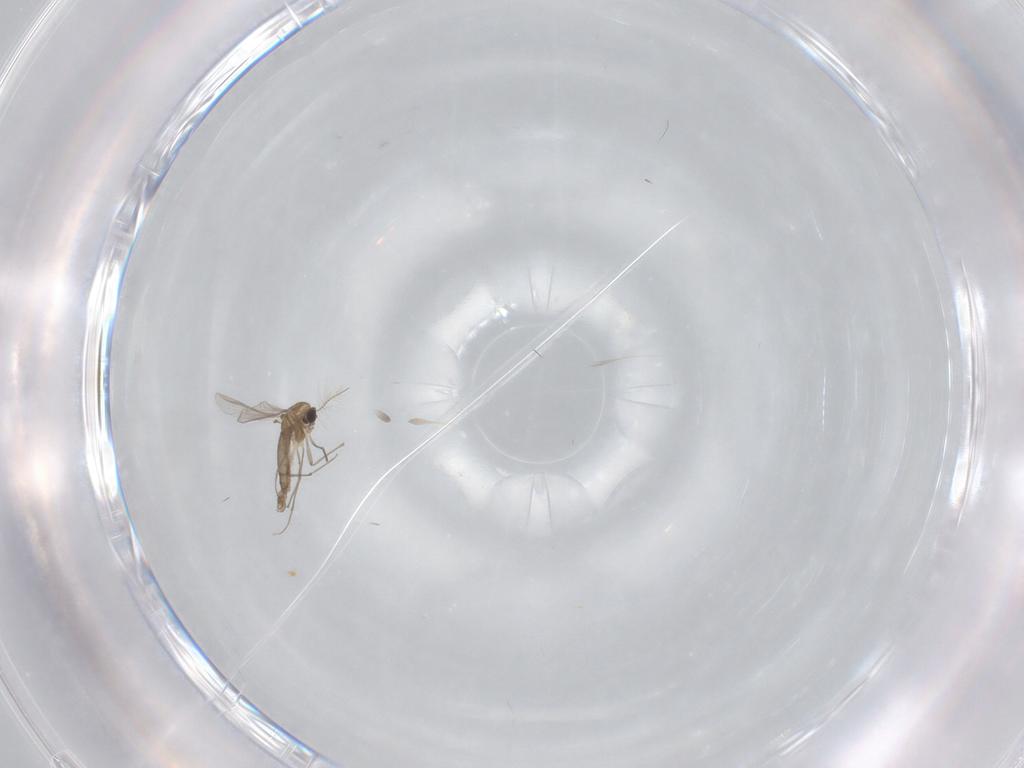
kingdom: Animalia
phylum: Arthropoda
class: Insecta
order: Diptera
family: Chironomidae
